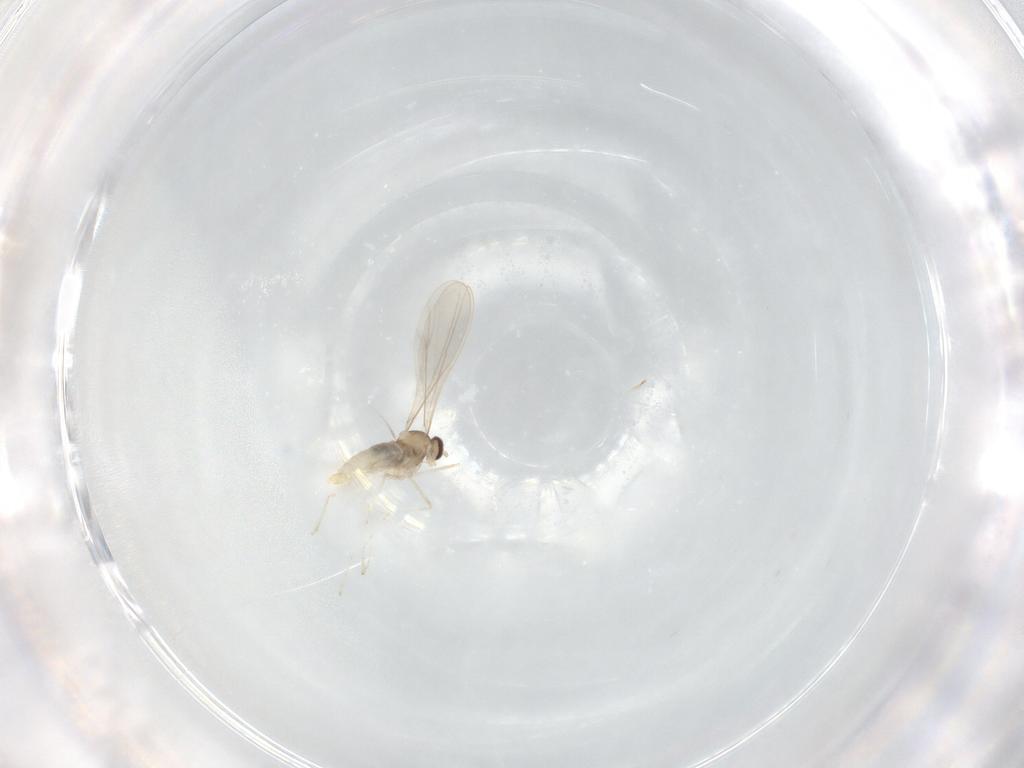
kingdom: Animalia
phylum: Arthropoda
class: Insecta
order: Diptera
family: Cecidomyiidae
